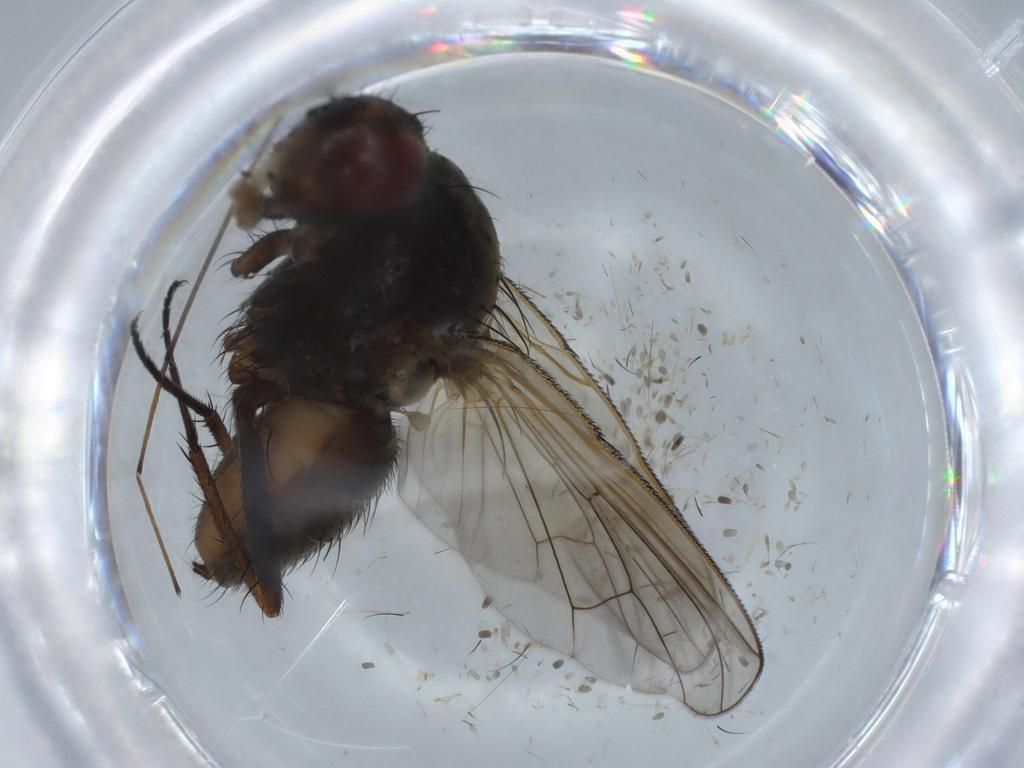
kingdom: Animalia
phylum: Arthropoda
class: Insecta
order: Diptera
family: Anthomyiidae
